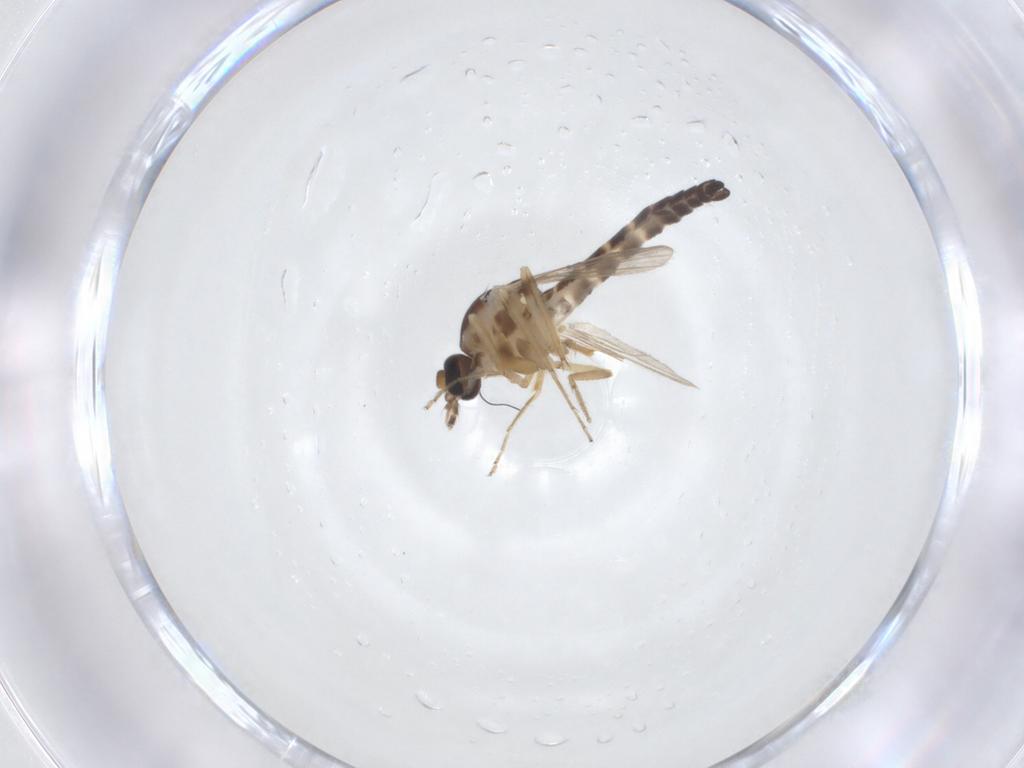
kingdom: Animalia
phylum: Arthropoda
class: Insecta
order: Diptera
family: Ceratopogonidae
